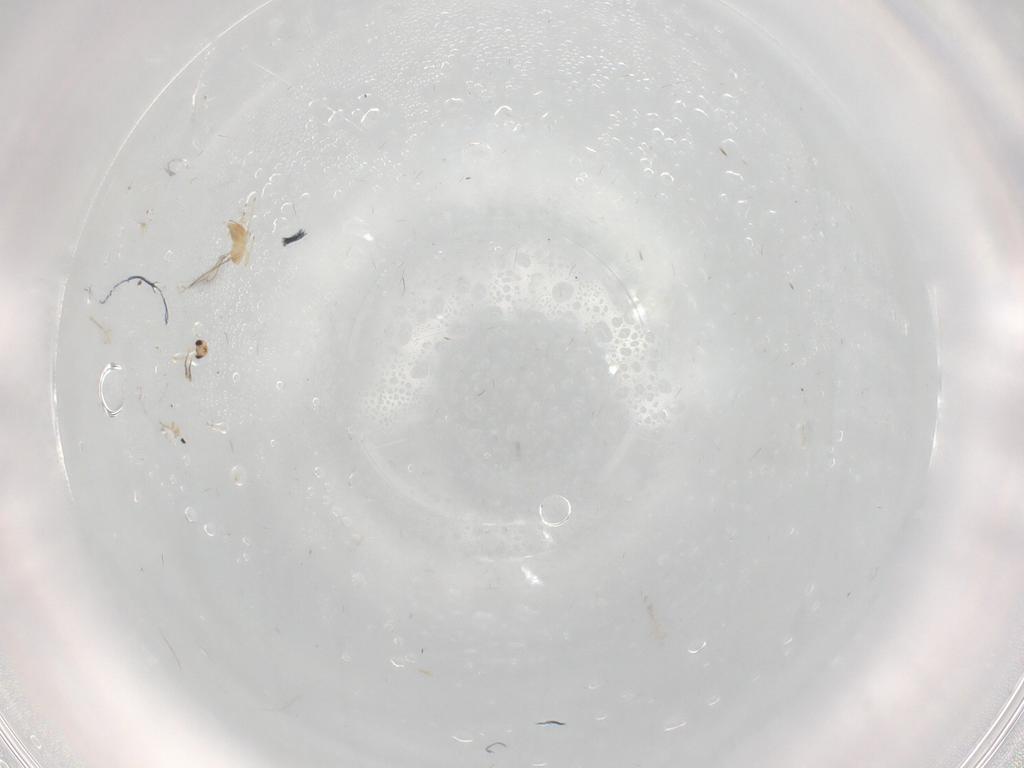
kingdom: Animalia
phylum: Arthropoda
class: Insecta
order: Hymenoptera
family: Mymaridae
